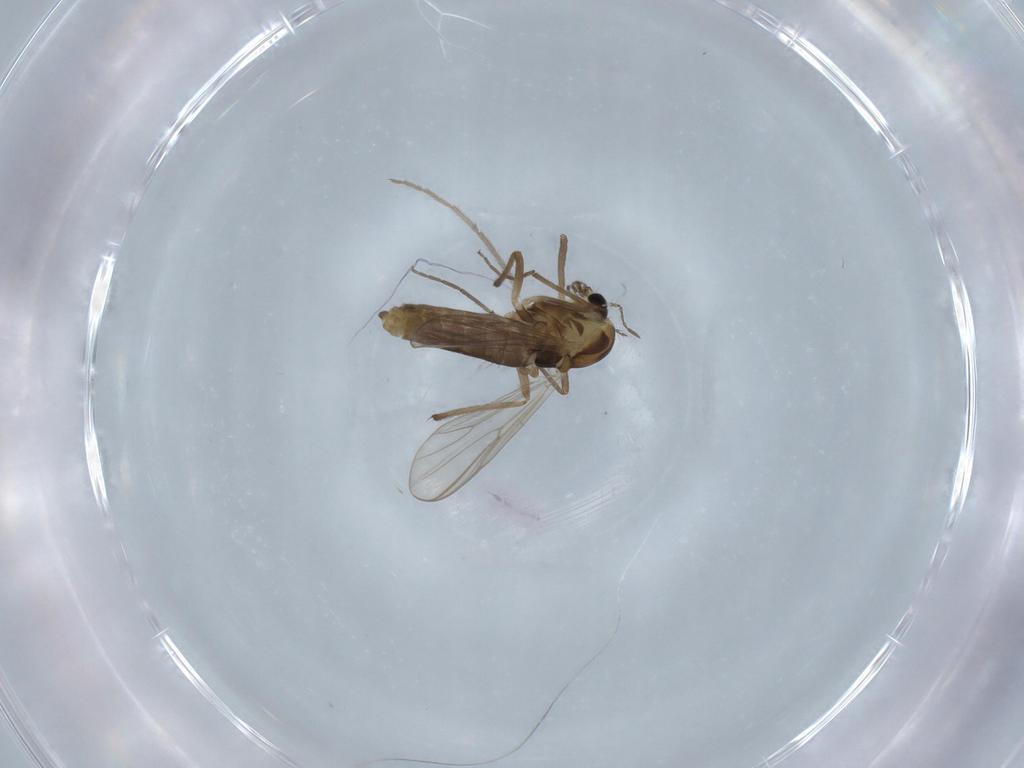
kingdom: Animalia
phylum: Arthropoda
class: Insecta
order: Diptera
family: Chironomidae
